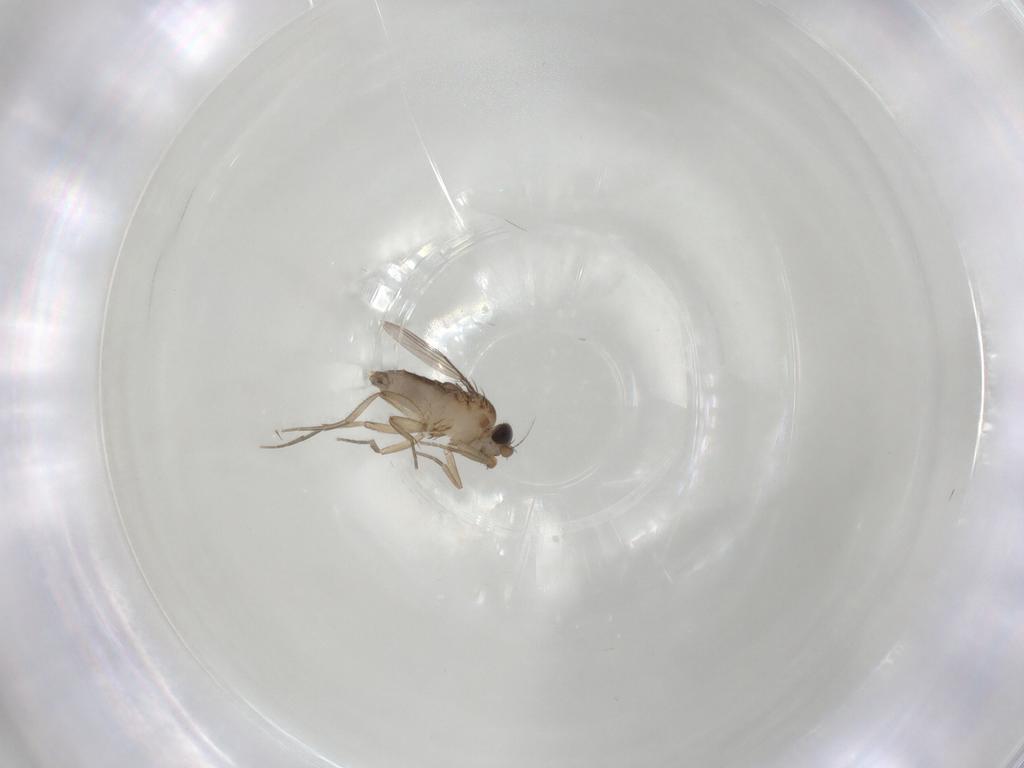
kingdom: Animalia
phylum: Arthropoda
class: Insecta
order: Diptera
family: Phoridae
